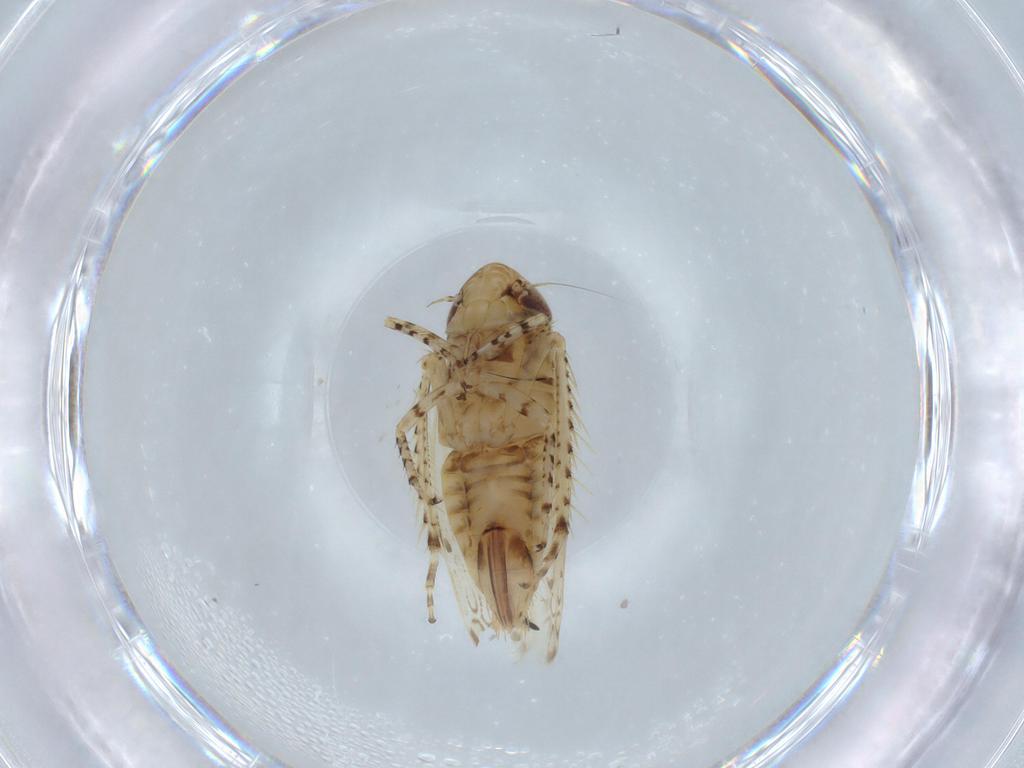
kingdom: Animalia
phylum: Arthropoda
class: Insecta
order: Hemiptera
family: Cicadellidae
